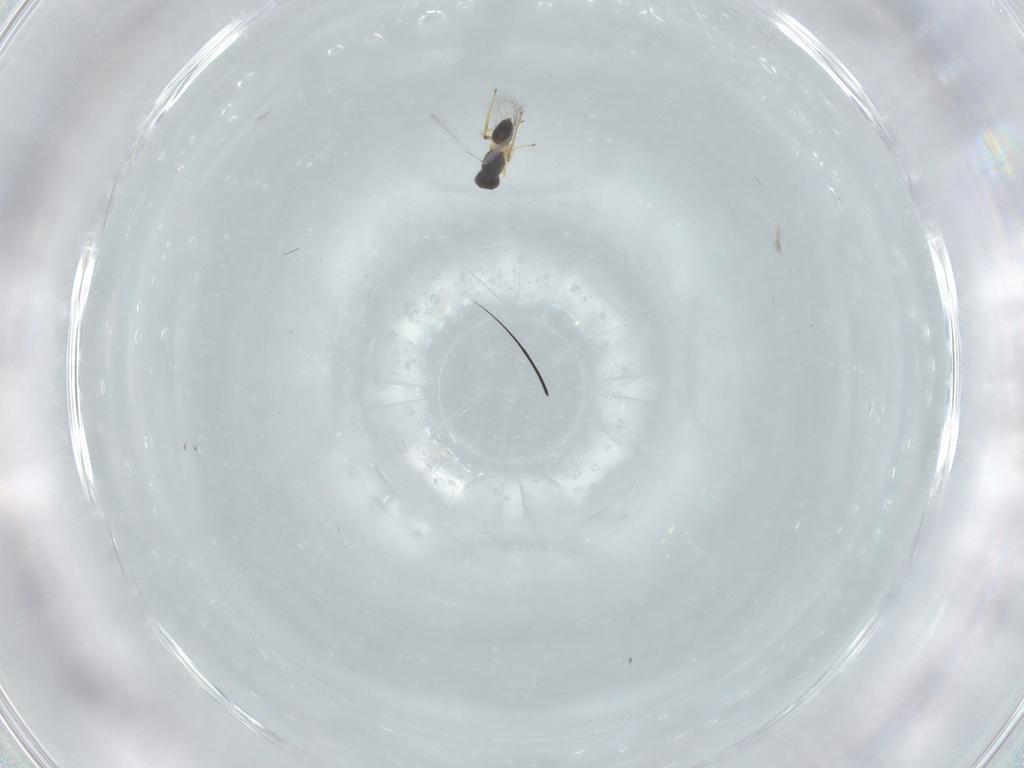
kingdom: Animalia
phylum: Arthropoda
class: Insecta
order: Hymenoptera
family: Mymaridae
